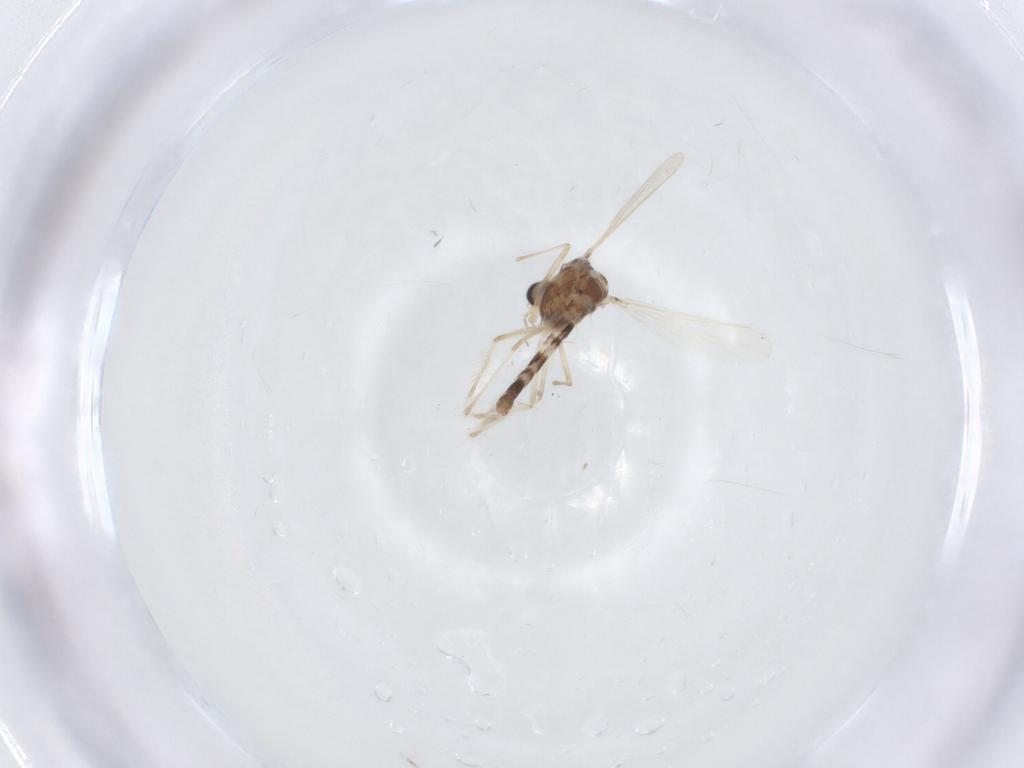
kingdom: Animalia
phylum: Arthropoda
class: Insecta
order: Diptera
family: Chironomidae
